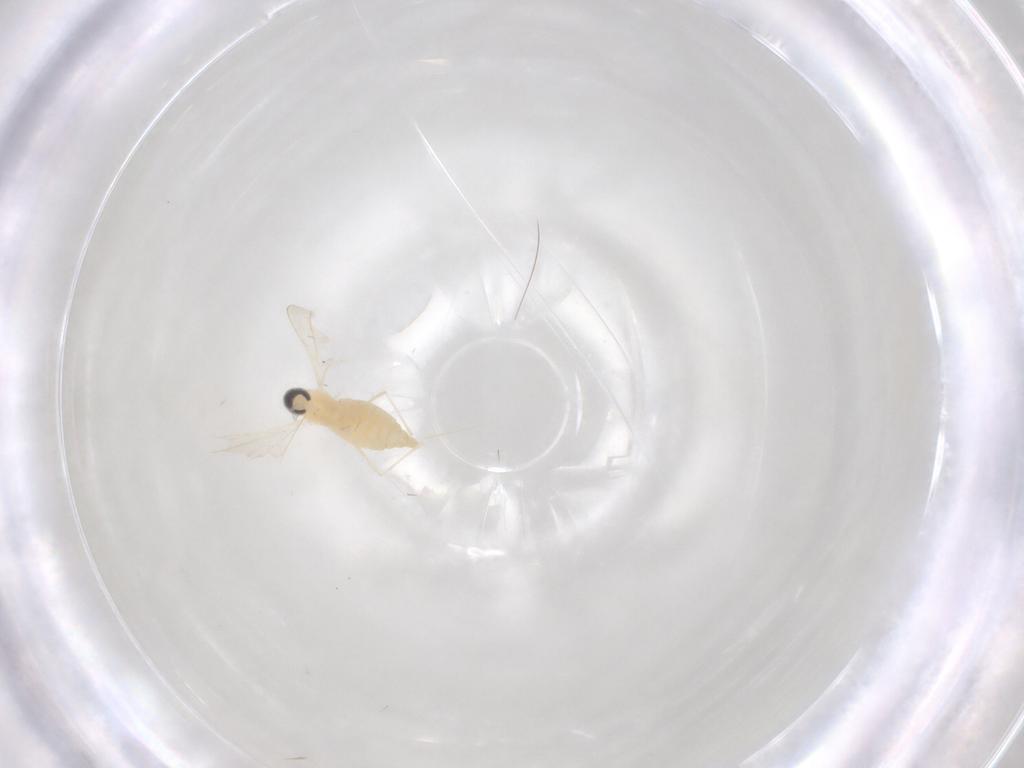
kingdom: Animalia
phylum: Arthropoda
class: Insecta
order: Diptera
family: Cecidomyiidae
